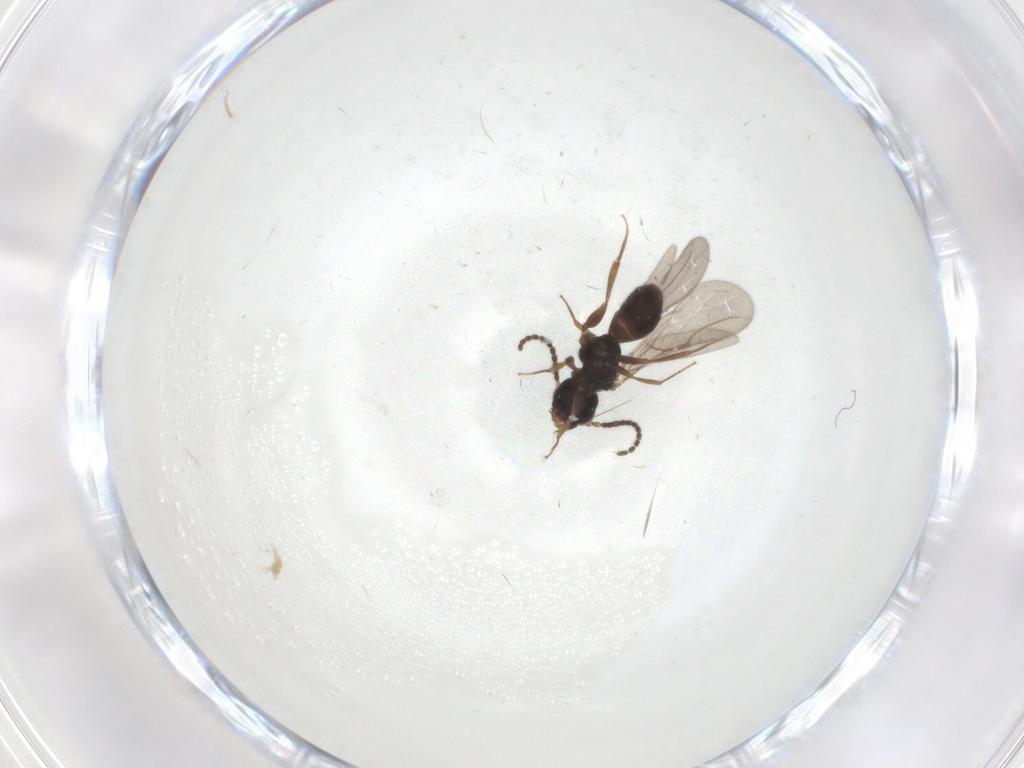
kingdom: Animalia
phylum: Arthropoda
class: Insecta
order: Hymenoptera
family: Bethylidae
